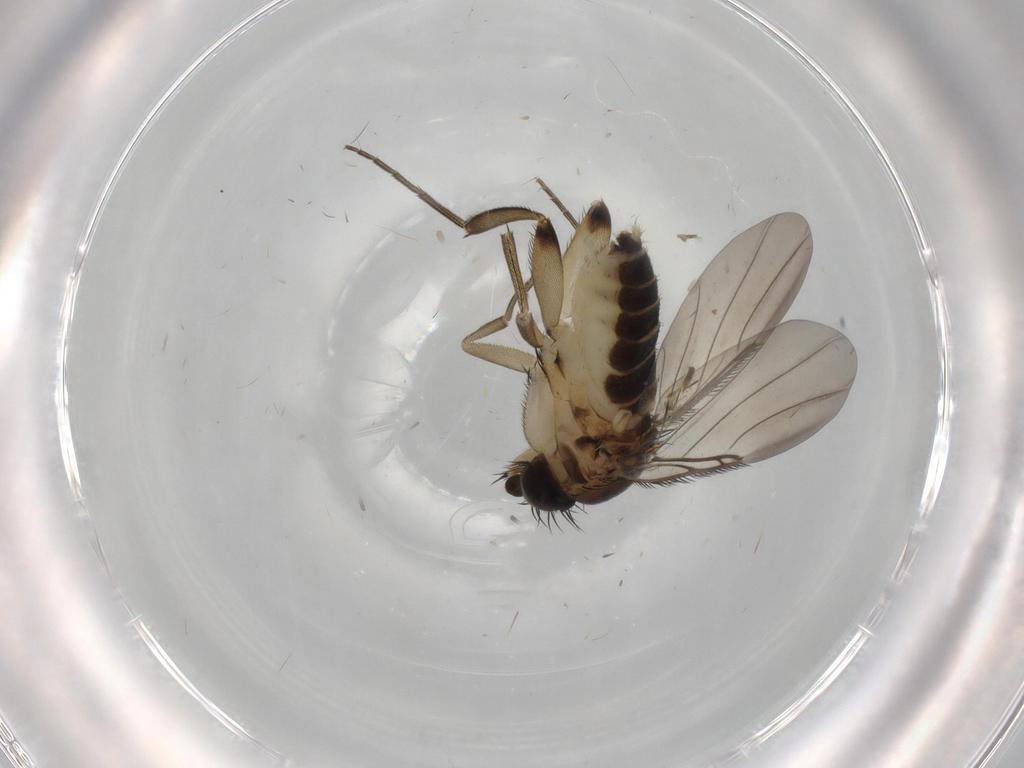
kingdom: Animalia
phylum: Arthropoda
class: Insecta
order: Diptera
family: Phoridae
